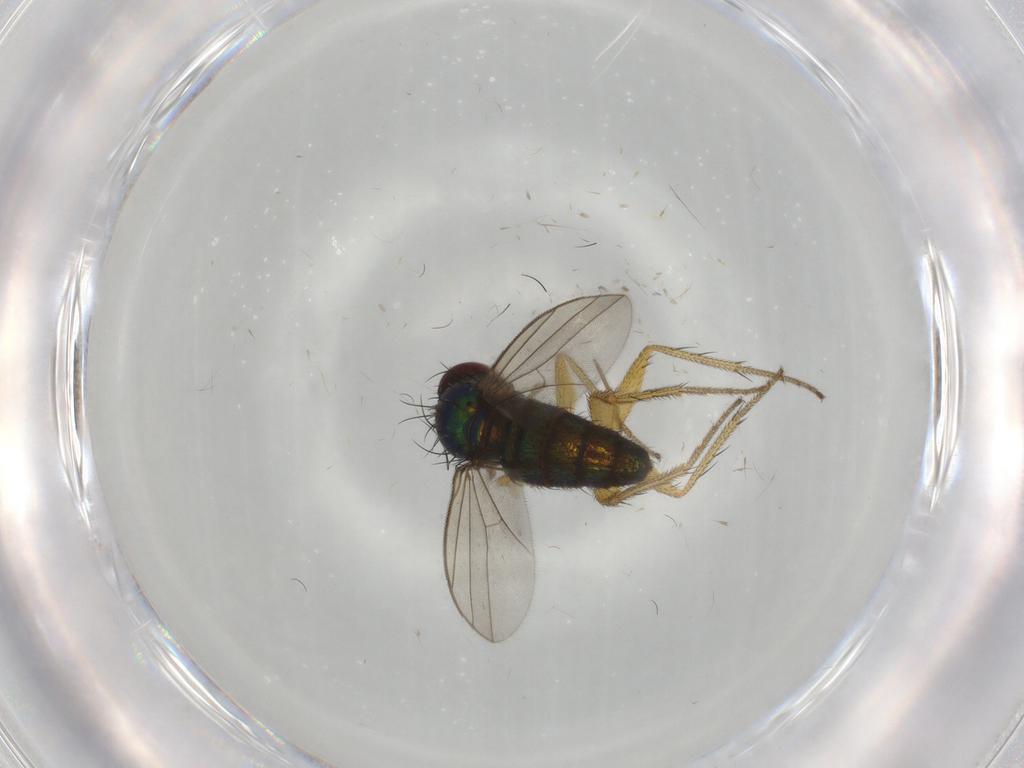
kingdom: Animalia
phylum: Arthropoda
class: Insecta
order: Diptera
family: Dolichopodidae
